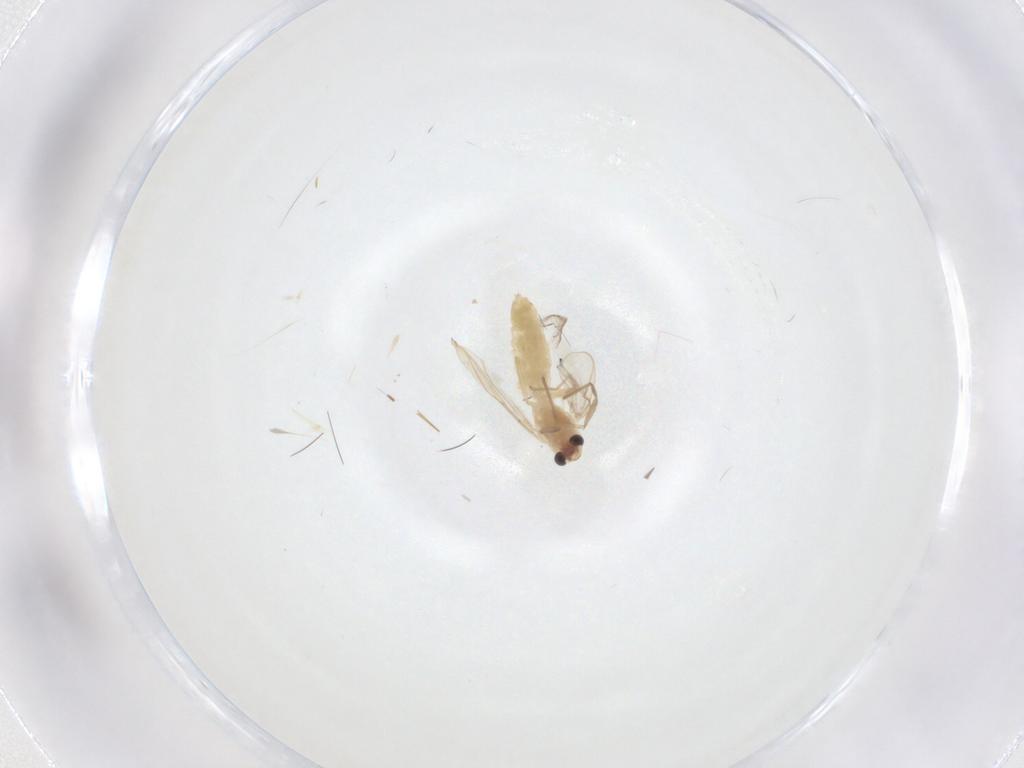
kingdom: Animalia
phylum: Arthropoda
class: Insecta
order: Diptera
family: Chironomidae
